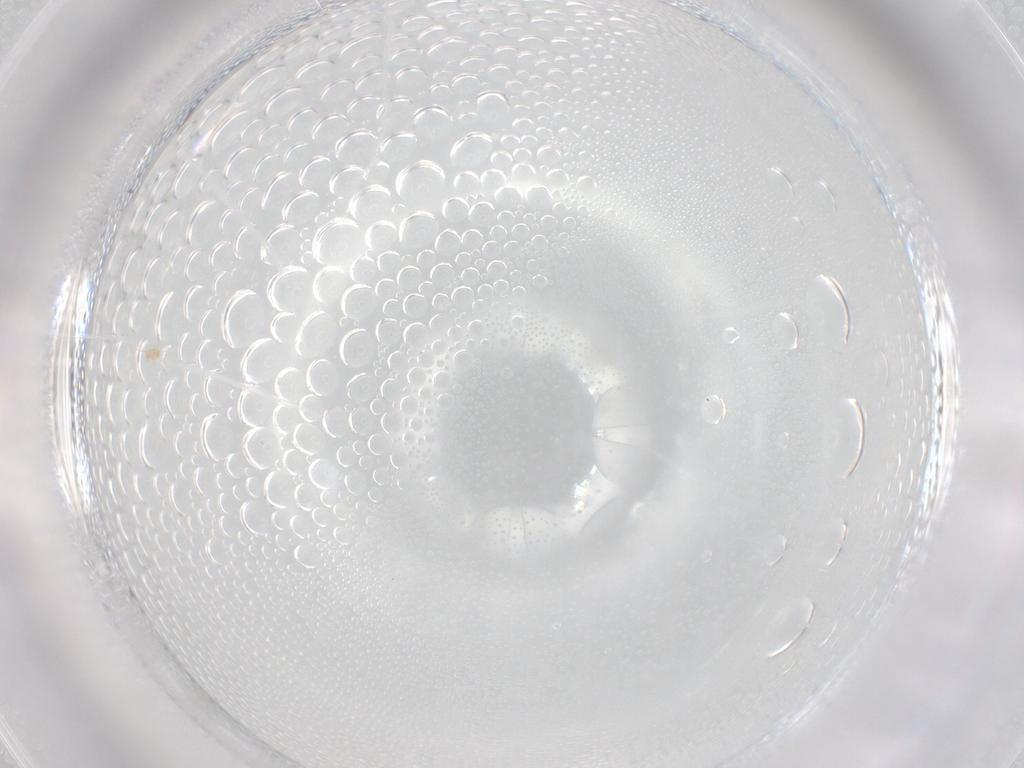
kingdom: Animalia
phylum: Arthropoda
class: Insecta
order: Diptera
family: Sphaeroceridae
